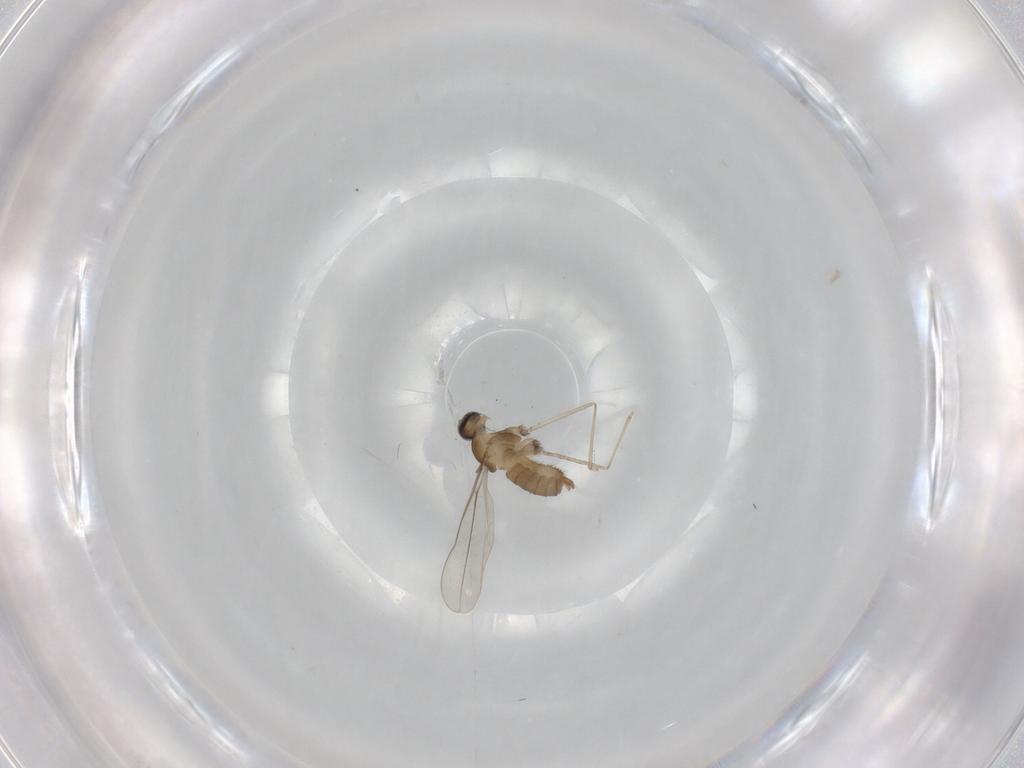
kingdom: Animalia
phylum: Arthropoda
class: Insecta
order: Diptera
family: Cecidomyiidae
